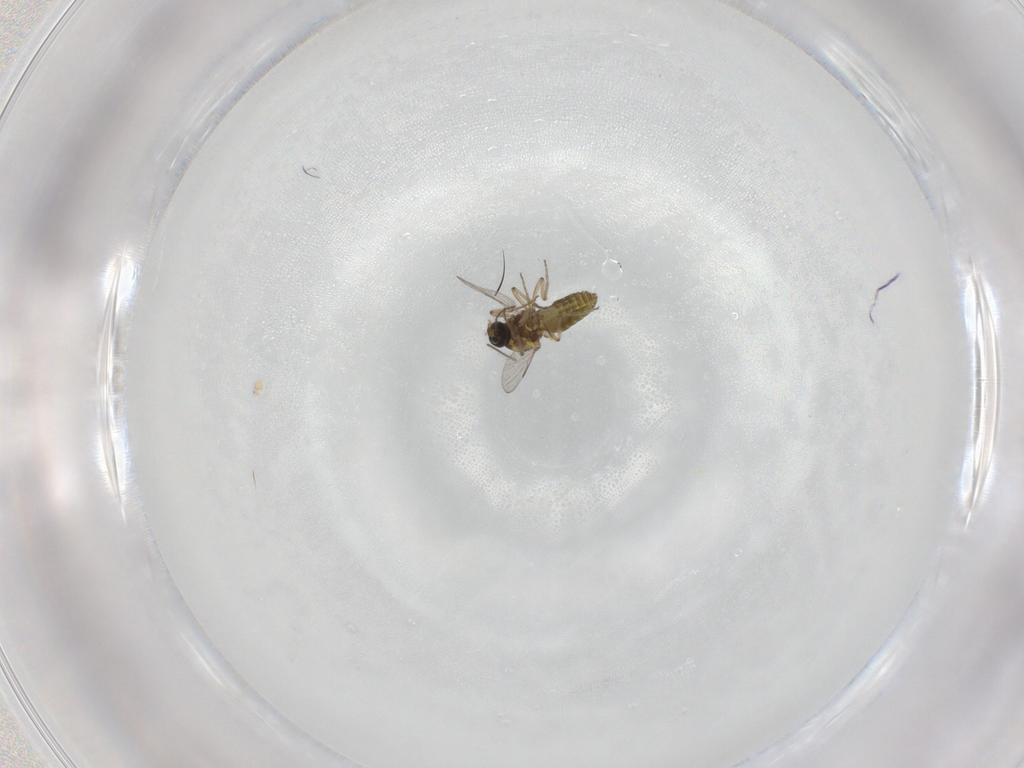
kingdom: Animalia
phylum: Arthropoda
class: Insecta
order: Diptera
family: Ceratopogonidae
